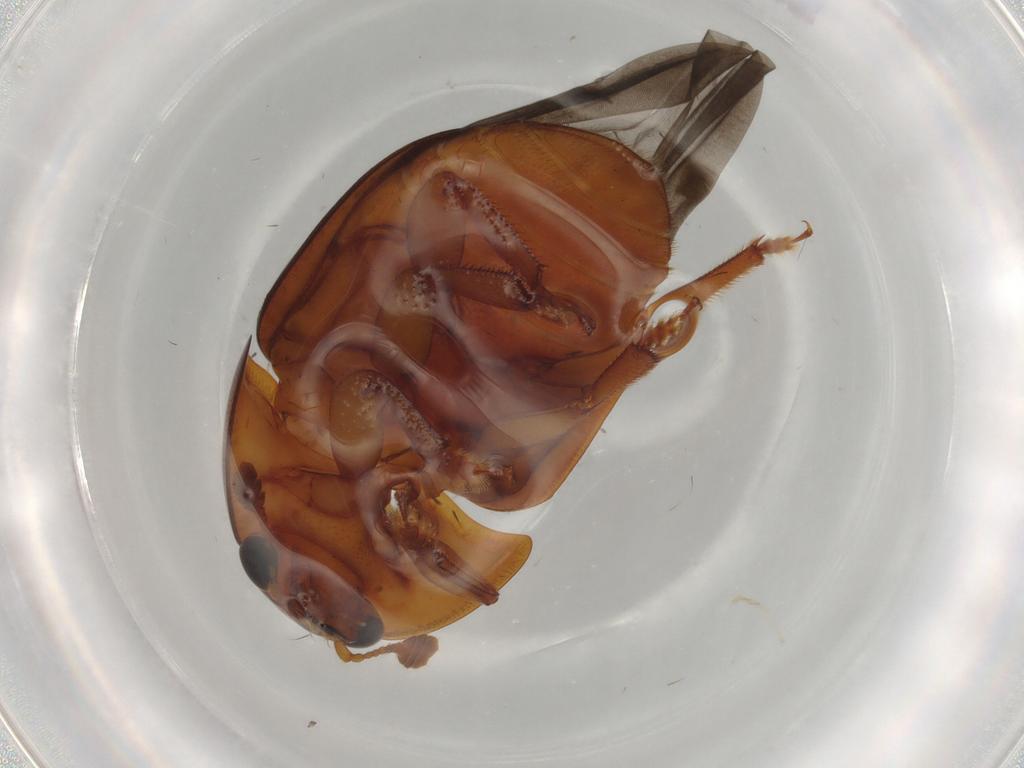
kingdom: Animalia
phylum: Arthropoda
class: Insecta
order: Coleoptera
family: Nitidulidae
